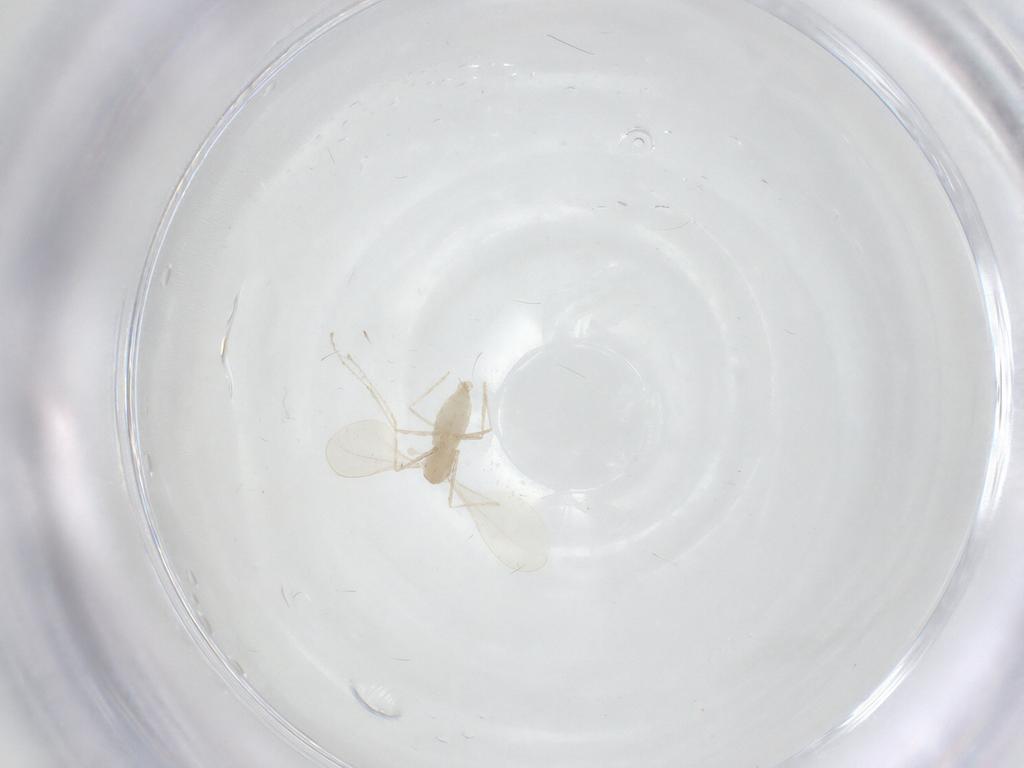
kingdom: Animalia
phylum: Arthropoda
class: Insecta
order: Diptera
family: Cecidomyiidae
